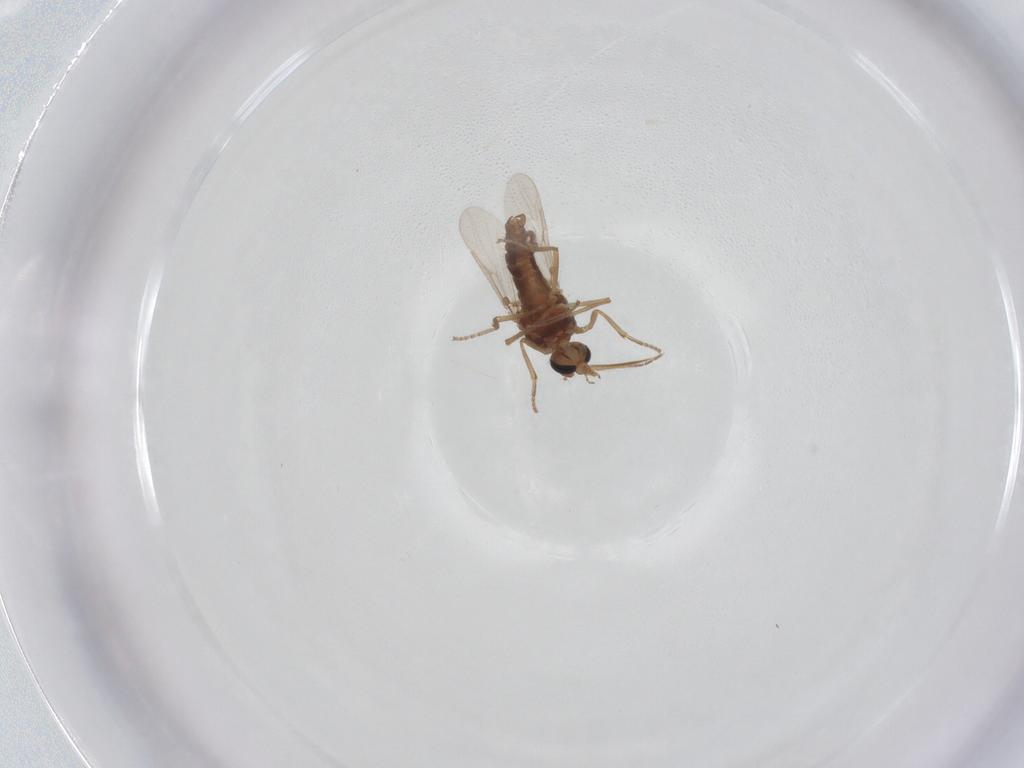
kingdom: Animalia
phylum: Arthropoda
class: Insecta
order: Diptera
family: Ceratopogonidae
